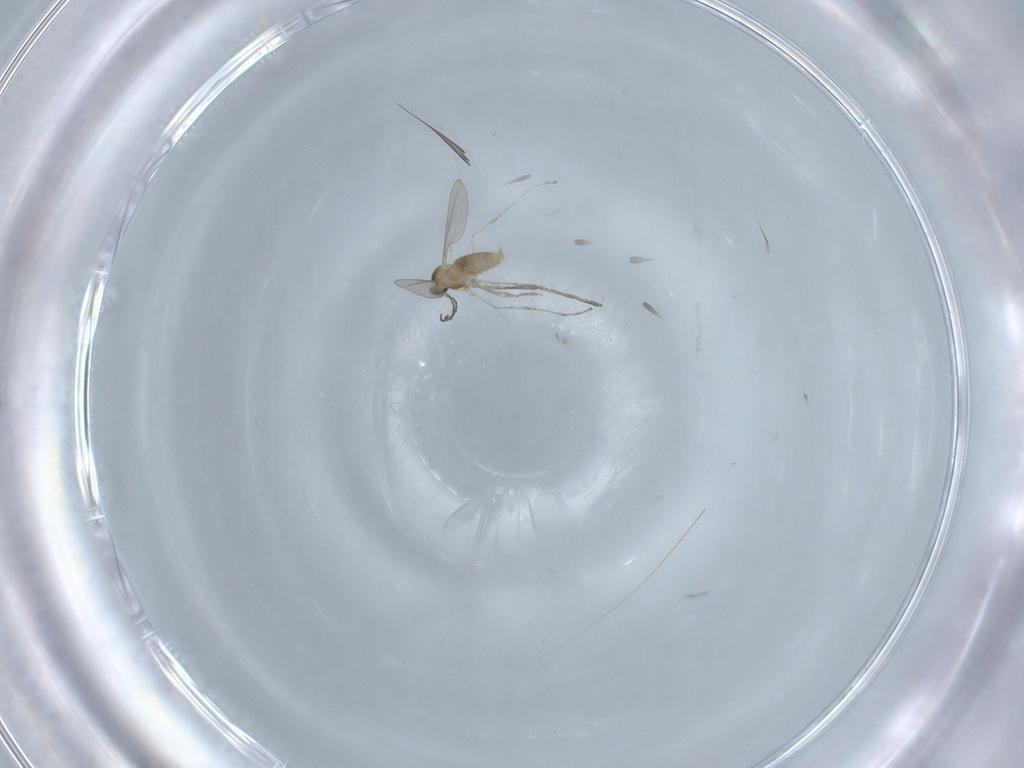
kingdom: Animalia
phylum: Arthropoda
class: Insecta
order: Diptera
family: Cecidomyiidae
